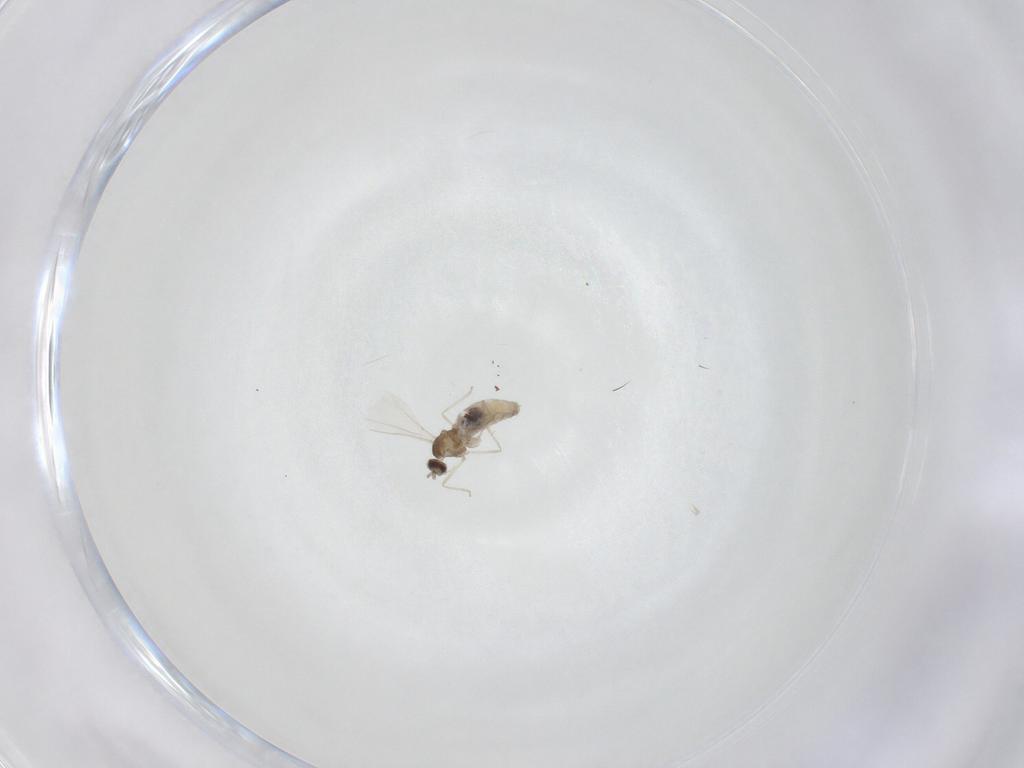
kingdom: Animalia
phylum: Arthropoda
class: Insecta
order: Diptera
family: Cecidomyiidae
